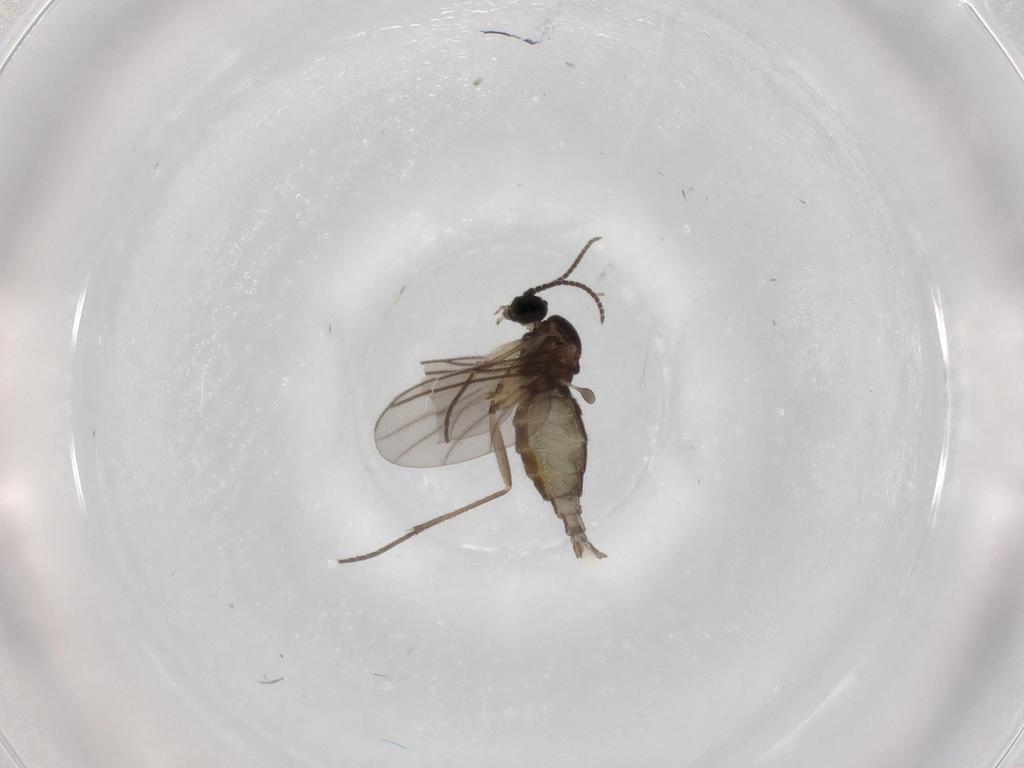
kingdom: Animalia
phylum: Arthropoda
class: Insecta
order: Diptera
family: Sciaridae
